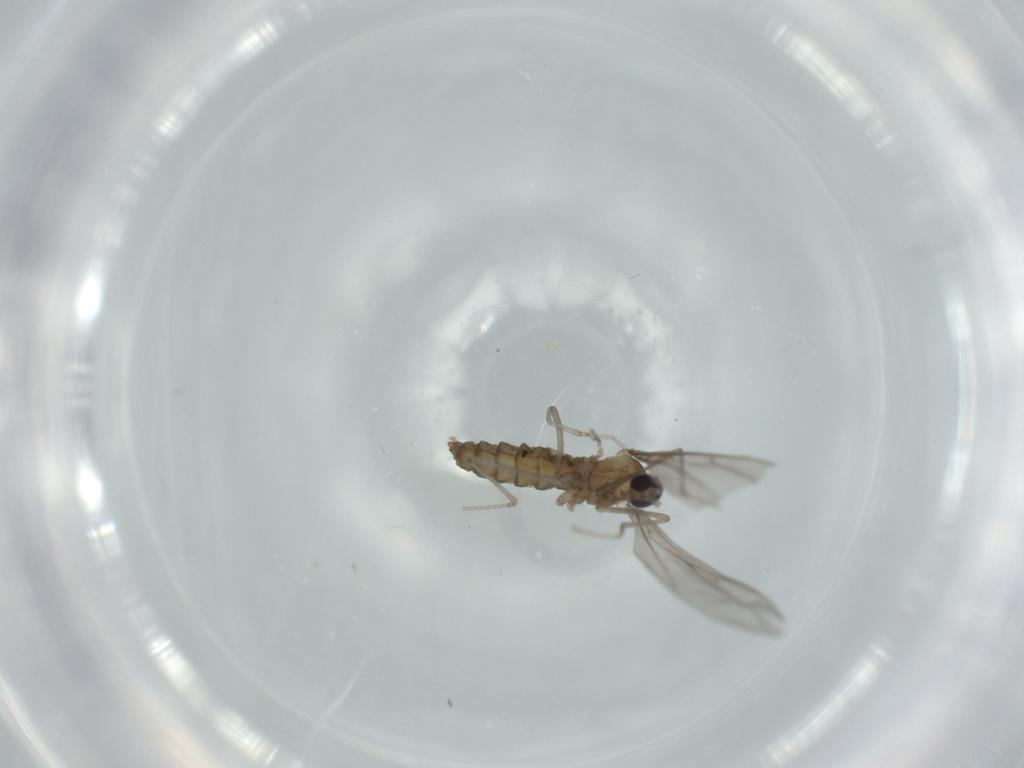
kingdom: Animalia
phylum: Arthropoda
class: Insecta
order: Diptera
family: Cecidomyiidae
